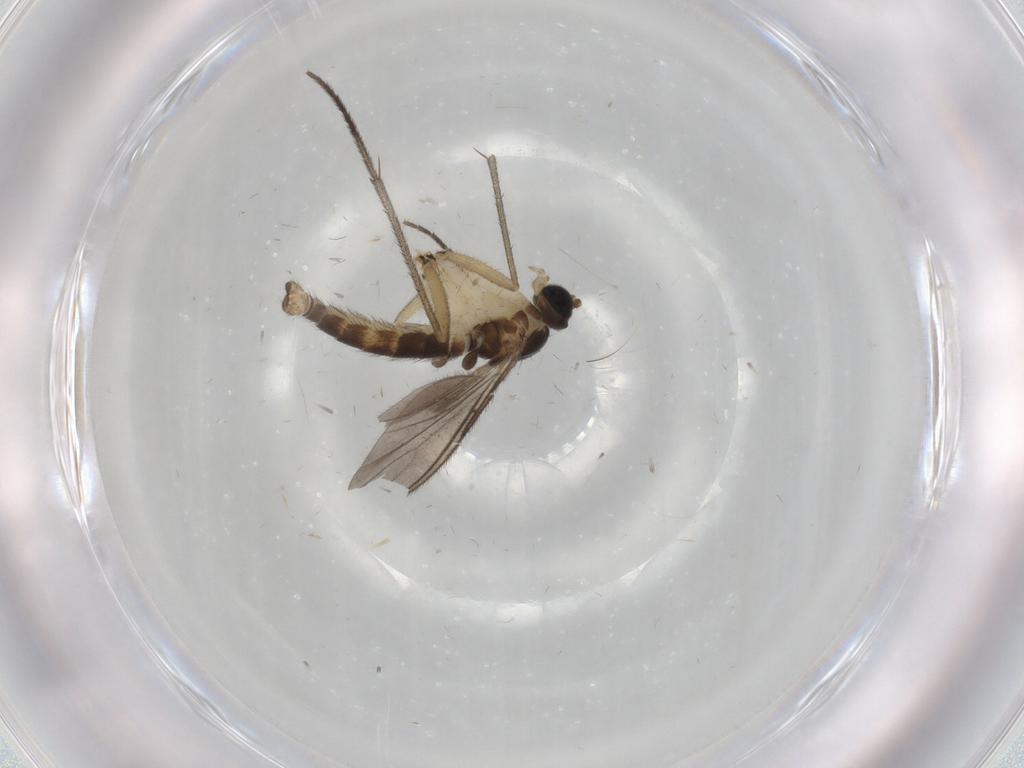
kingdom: Animalia
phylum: Arthropoda
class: Insecta
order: Diptera
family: Sciaridae
